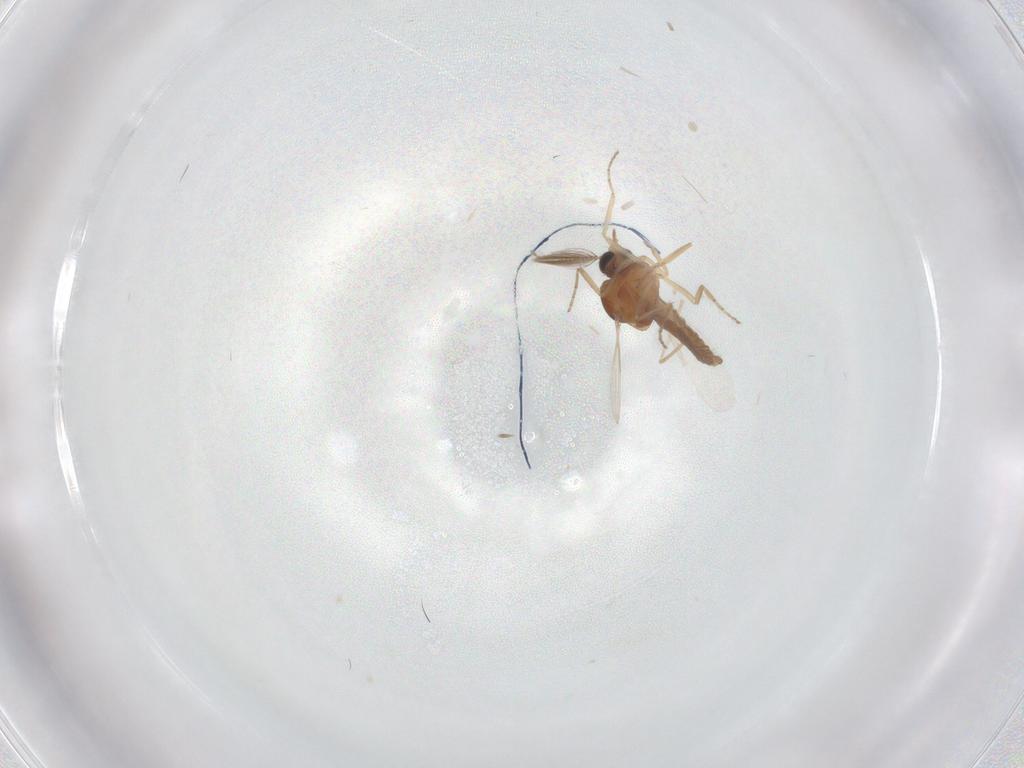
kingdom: Animalia
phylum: Arthropoda
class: Insecta
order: Diptera
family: Ceratopogonidae
